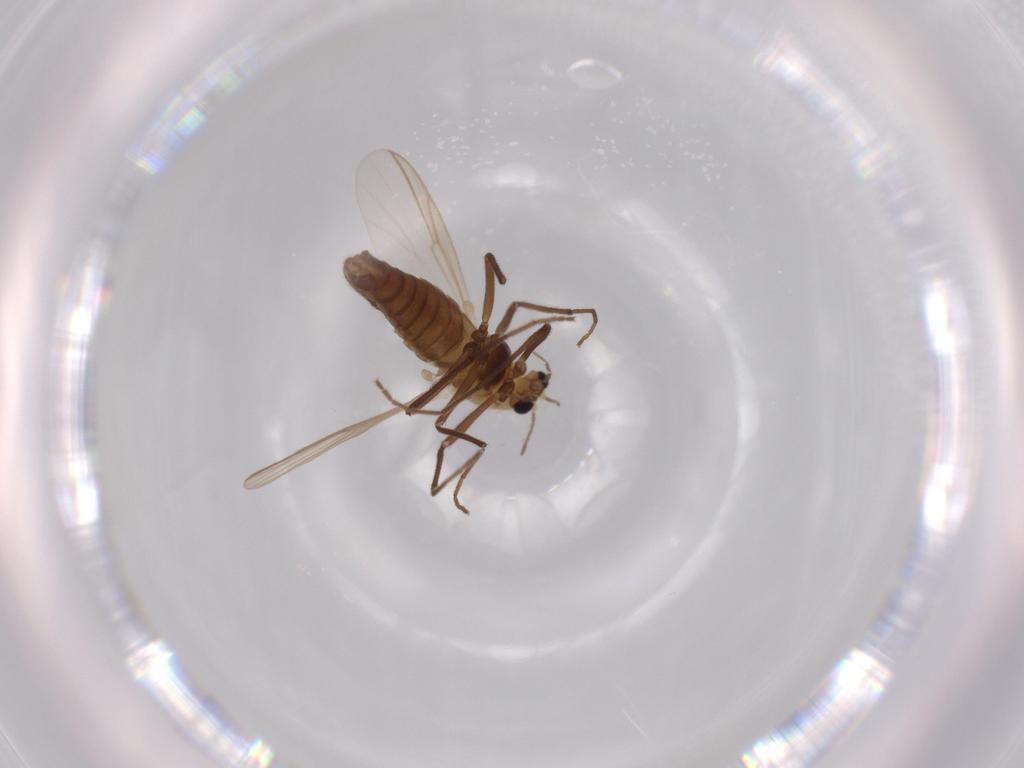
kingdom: Animalia
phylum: Arthropoda
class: Insecta
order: Diptera
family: Chironomidae
